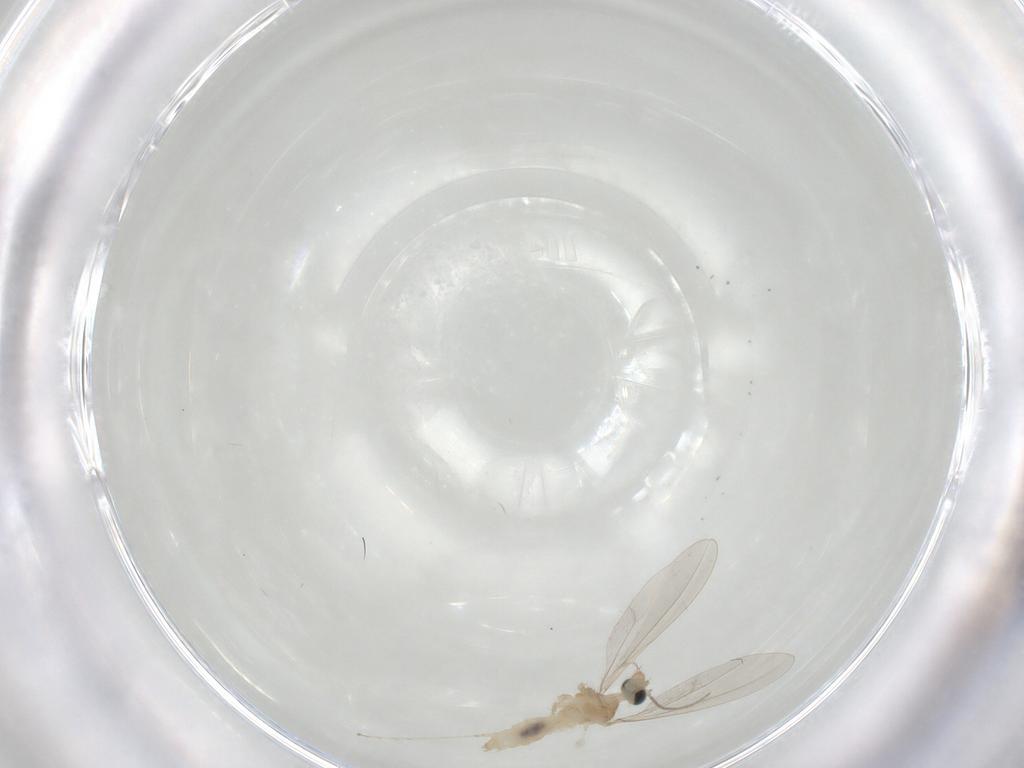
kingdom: Animalia
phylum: Arthropoda
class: Insecta
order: Diptera
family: Cecidomyiidae
